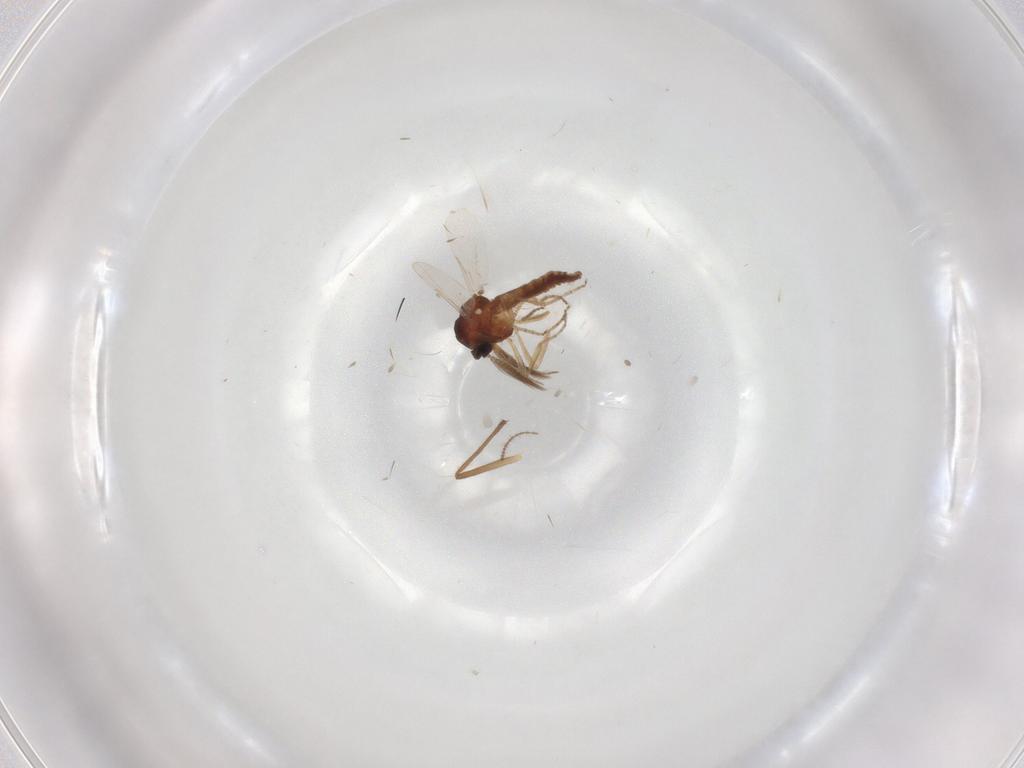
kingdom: Animalia
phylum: Arthropoda
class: Insecta
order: Diptera
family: Ceratopogonidae
